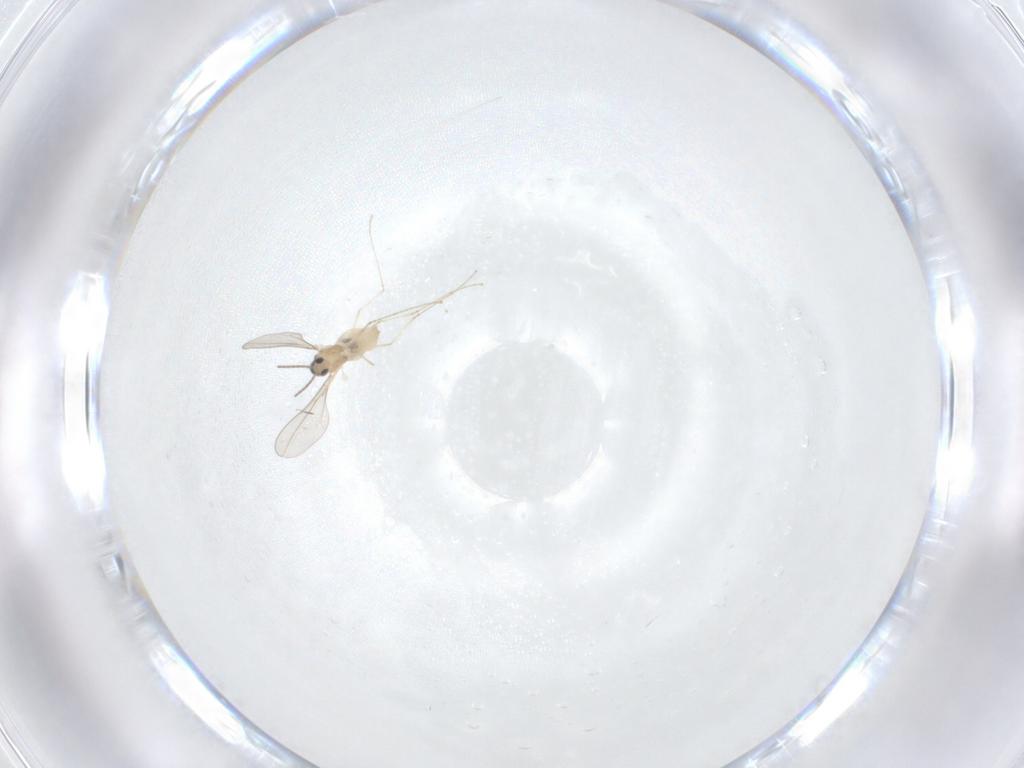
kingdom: Animalia
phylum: Arthropoda
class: Insecta
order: Diptera
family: Cecidomyiidae
